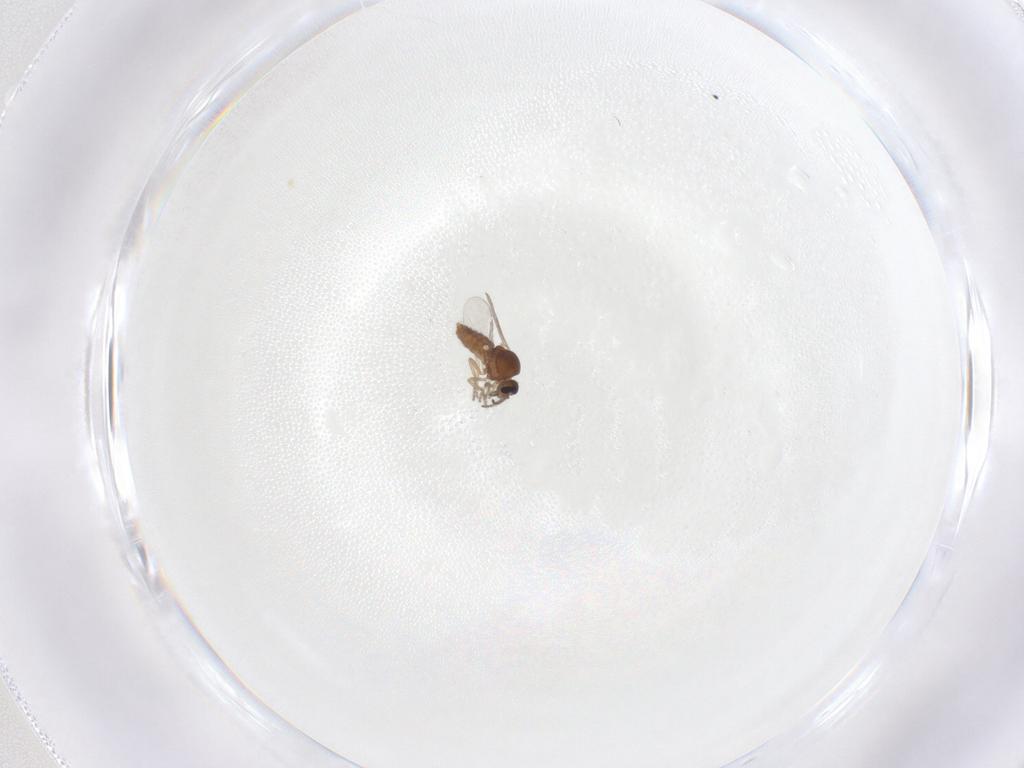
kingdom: Animalia
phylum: Arthropoda
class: Insecta
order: Diptera
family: Ceratopogonidae
